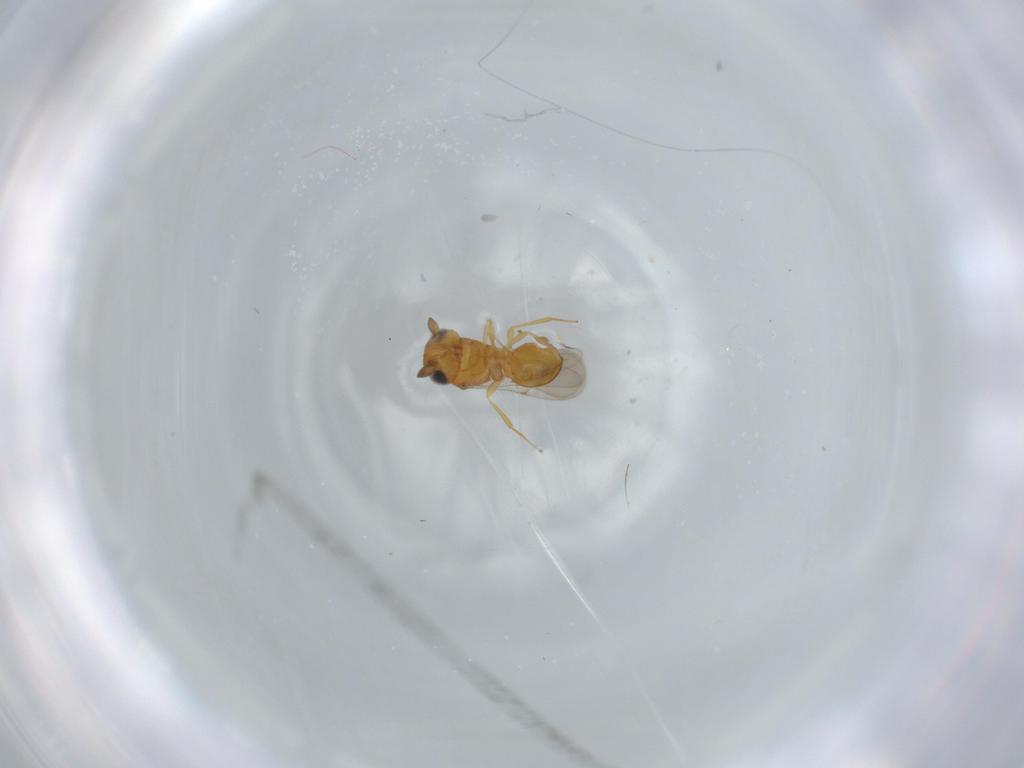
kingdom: Animalia
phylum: Arthropoda
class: Insecta
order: Hymenoptera
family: Scelionidae
